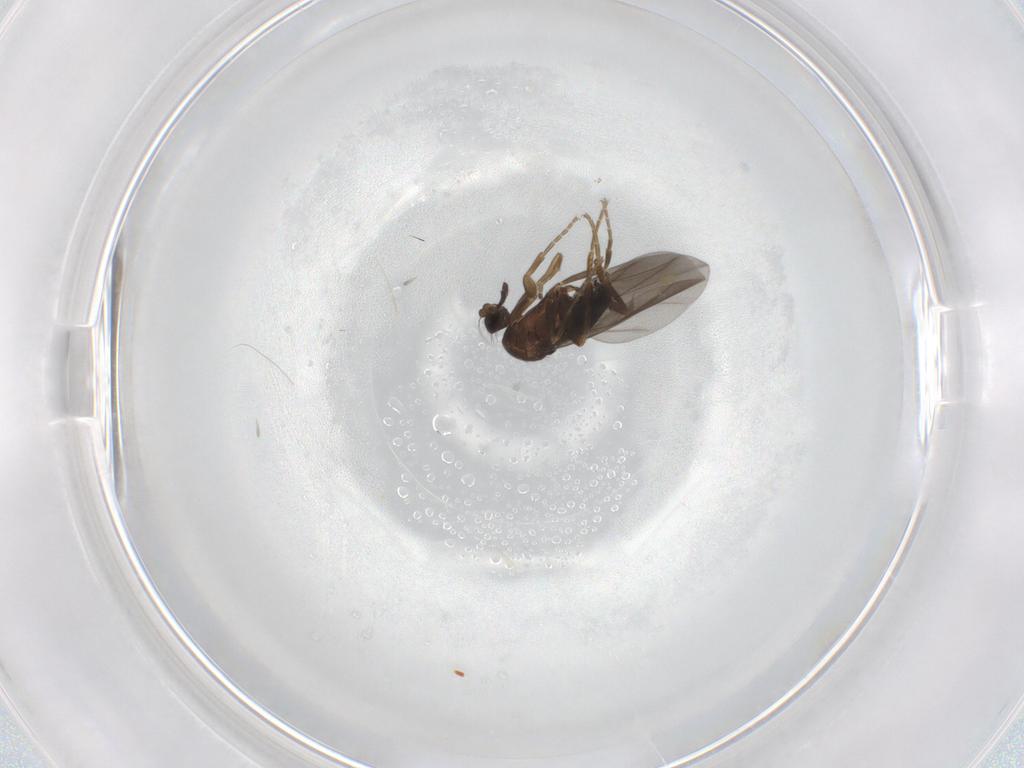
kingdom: Animalia
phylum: Arthropoda
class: Insecta
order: Diptera
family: Phoridae
